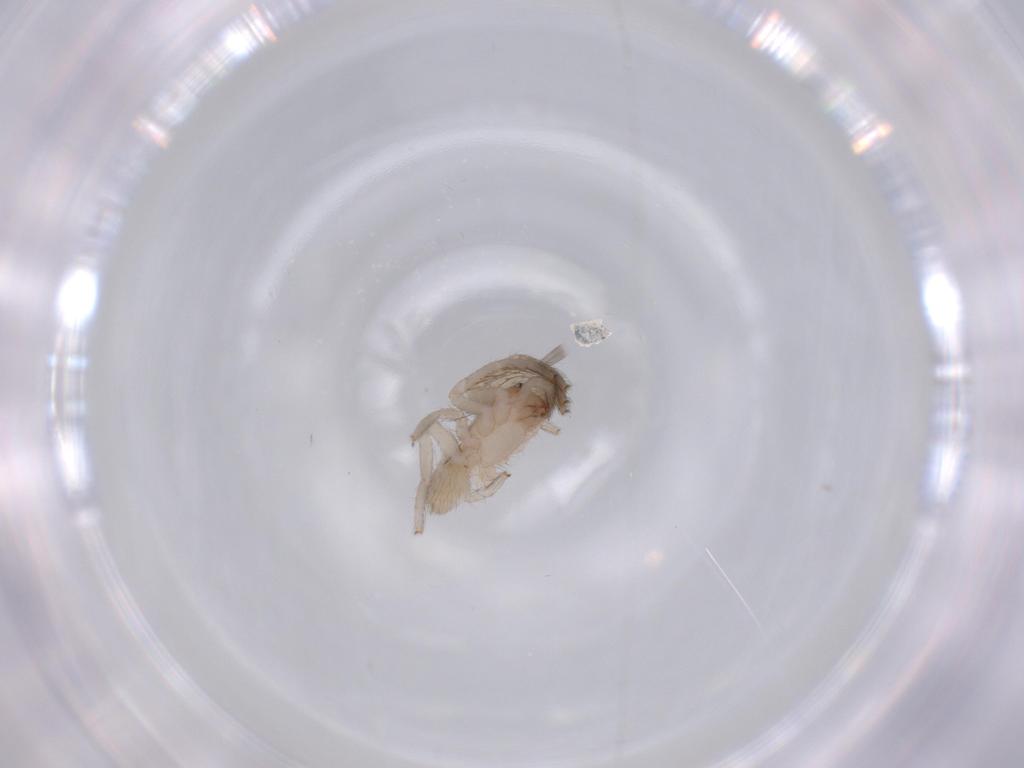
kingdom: Animalia
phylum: Arthropoda
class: Arachnida
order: Araneae
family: Segestriidae
